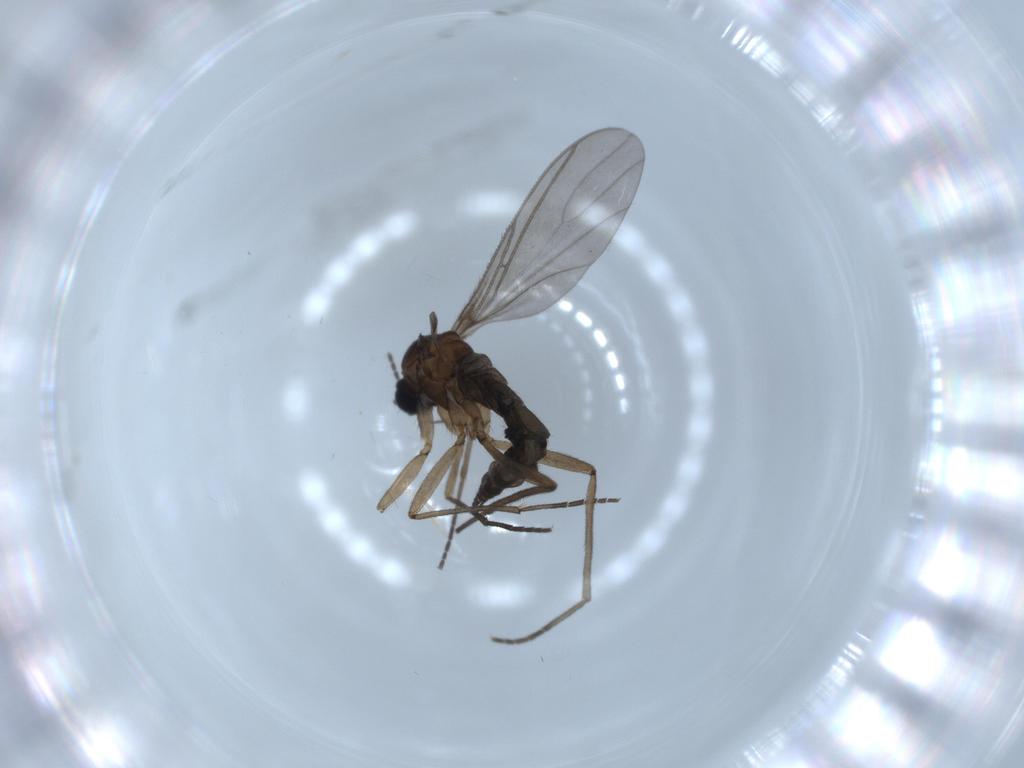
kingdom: Animalia
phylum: Arthropoda
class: Insecta
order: Diptera
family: Sciaridae
